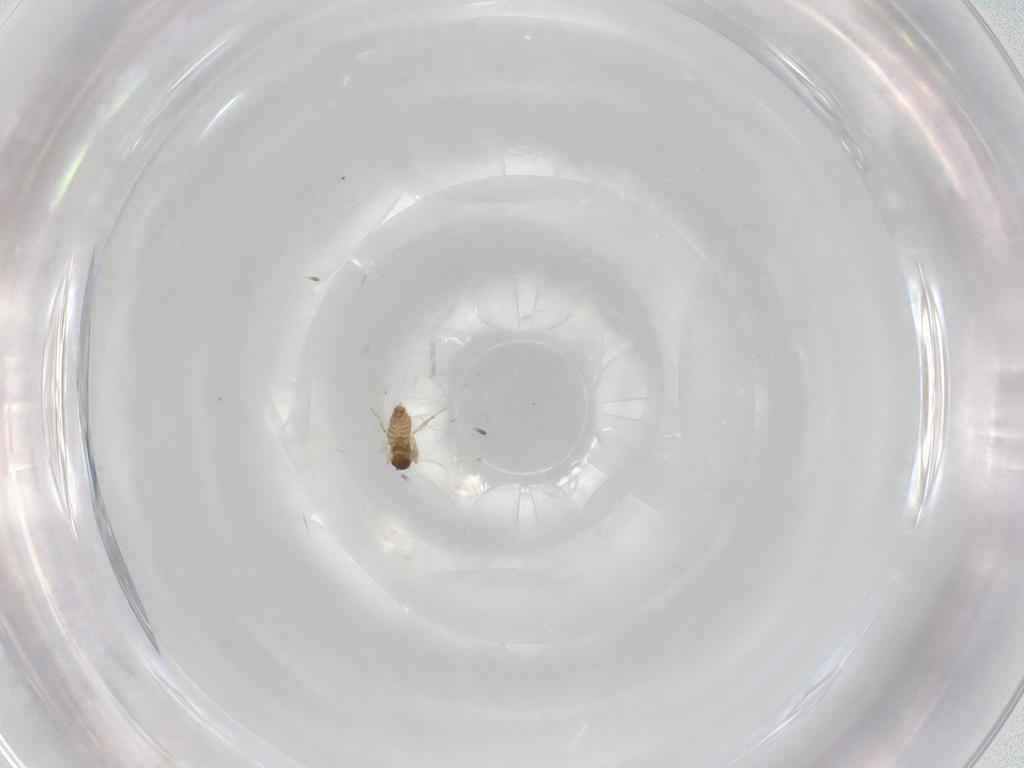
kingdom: Animalia
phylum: Arthropoda
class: Insecta
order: Diptera
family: Cecidomyiidae
